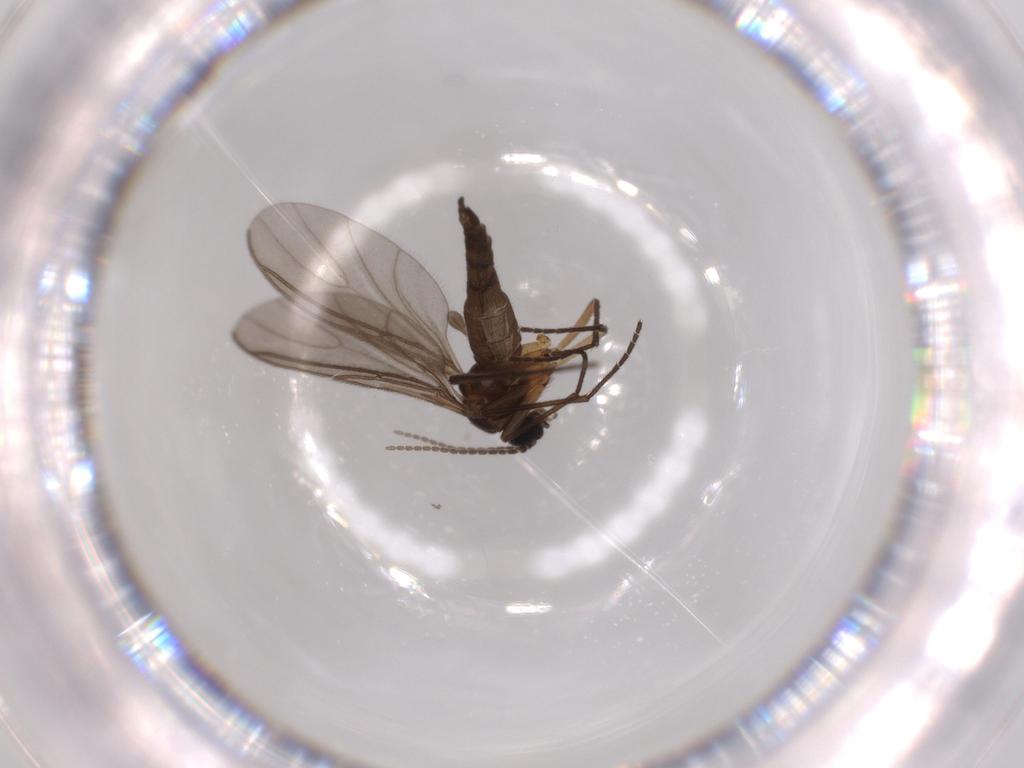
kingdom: Animalia
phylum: Arthropoda
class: Insecta
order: Diptera
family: Sciaridae
